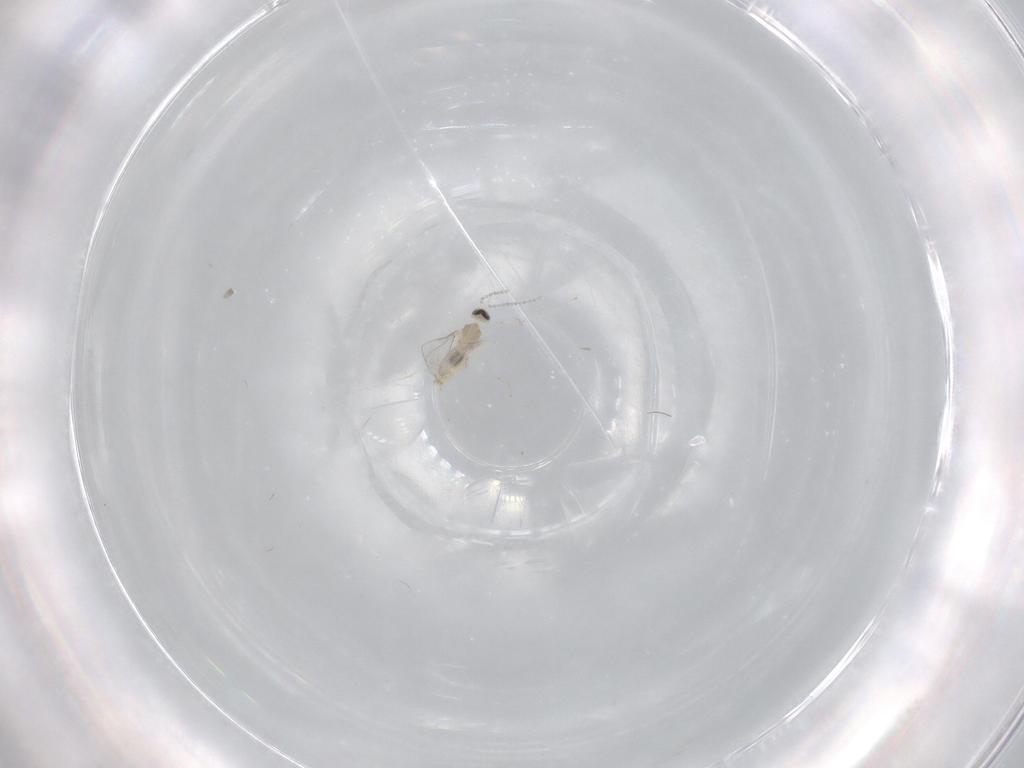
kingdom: Animalia
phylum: Arthropoda
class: Insecta
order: Diptera
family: Cecidomyiidae
